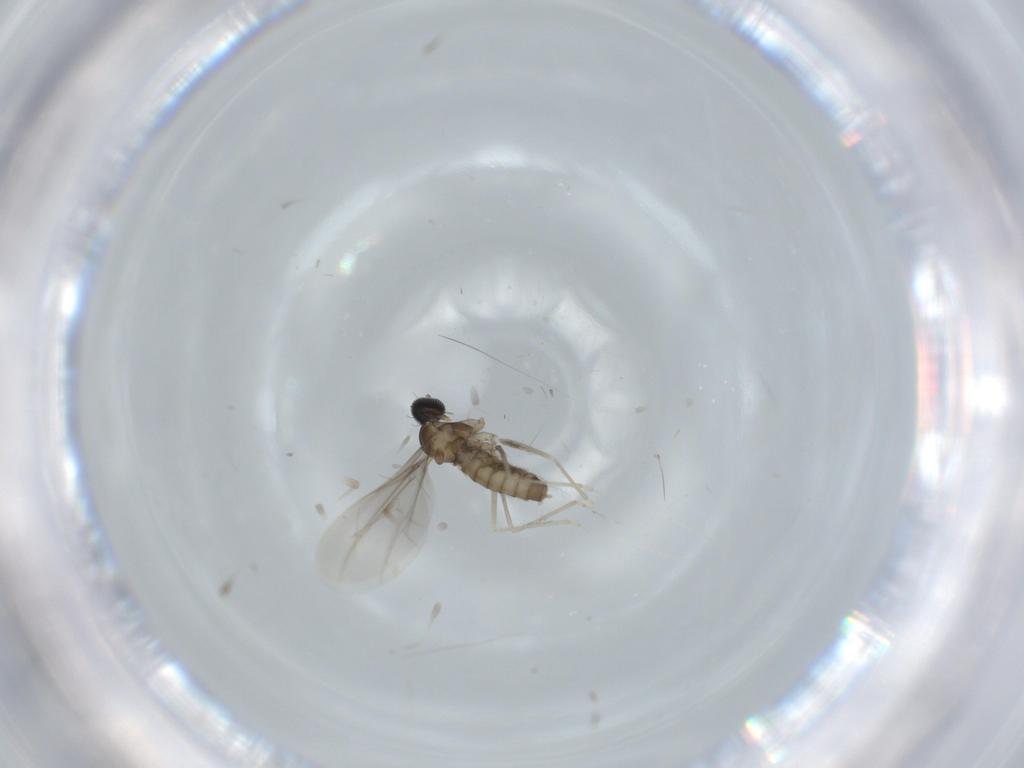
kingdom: Animalia
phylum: Arthropoda
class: Insecta
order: Diptera
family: Cecidomyiidae
